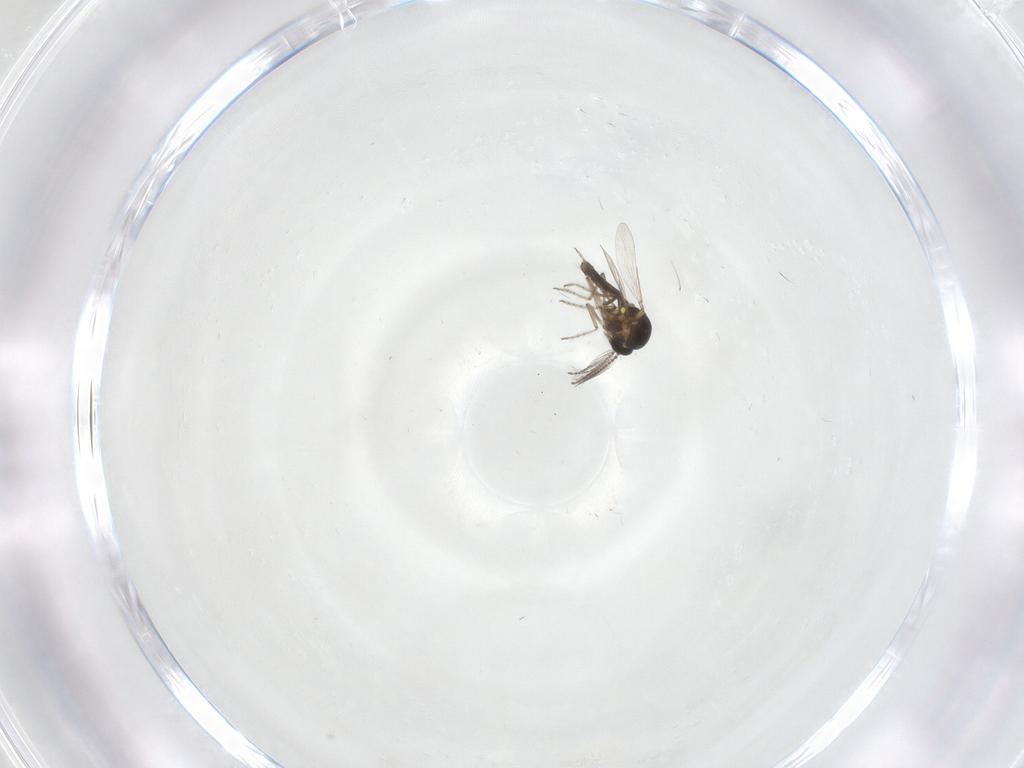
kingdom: Animalia
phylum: Arthropoda
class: Insecta
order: Diptera
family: Ceratopogonidae
